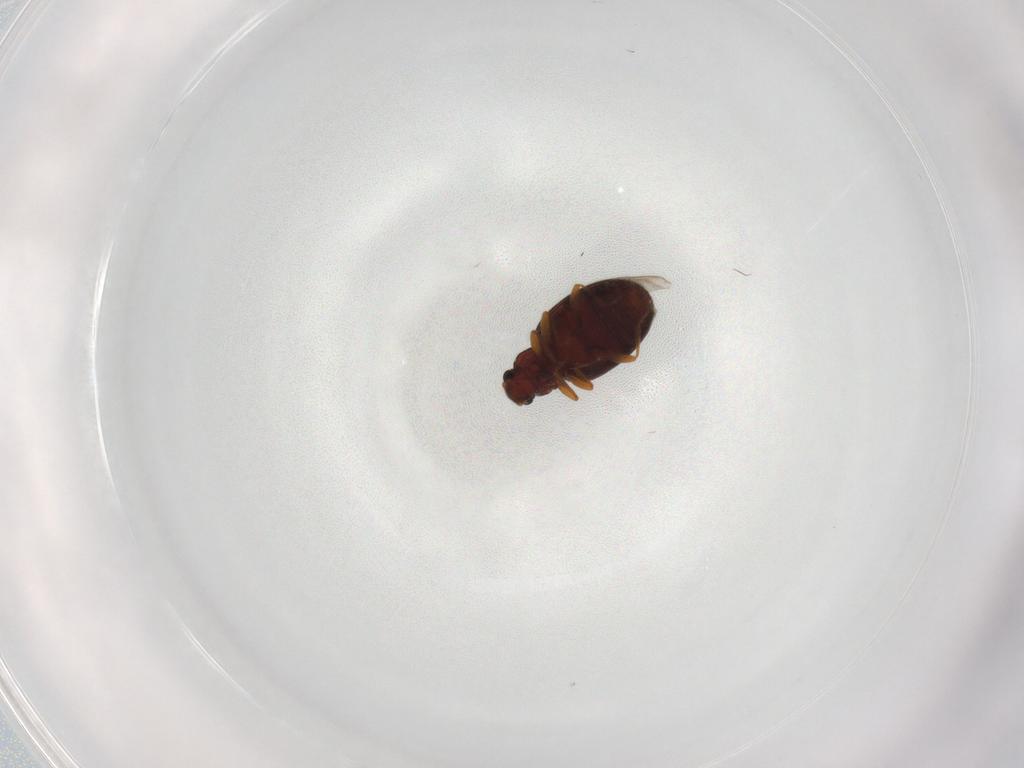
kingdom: Animalia
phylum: Arthropoda
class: Insecta
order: Coleoptera
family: Latridiidae
